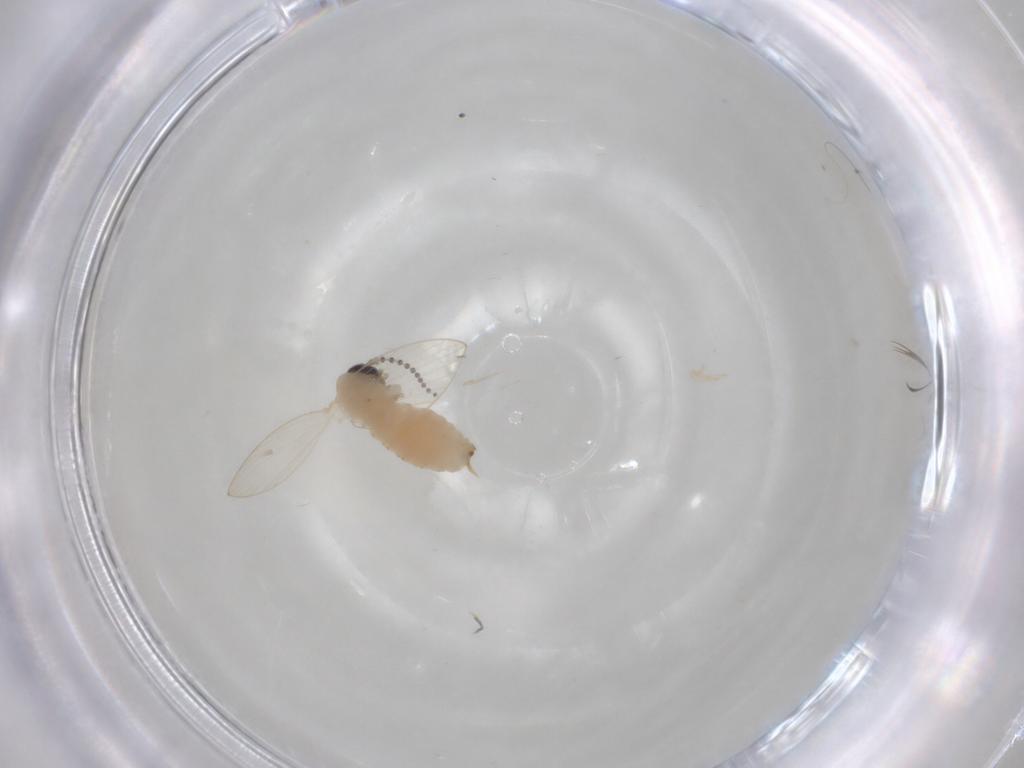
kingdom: Animalia
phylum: Arthropoda
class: Insecta
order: Diptera
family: Psychodidae
